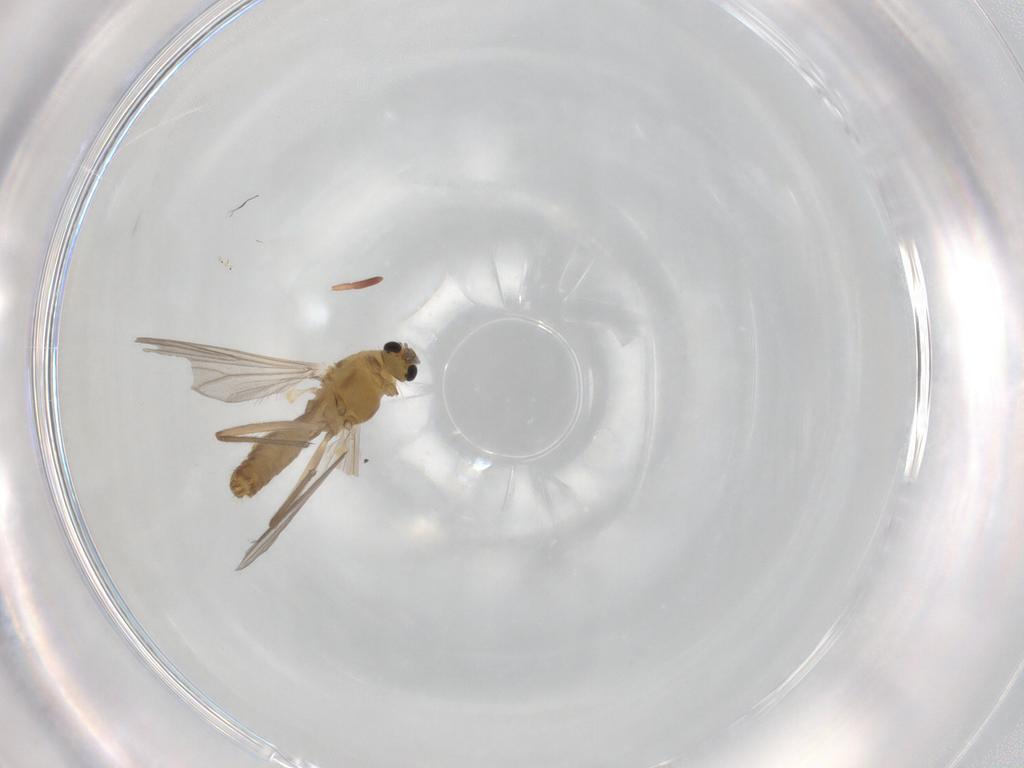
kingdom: Animalia
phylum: Arthropoda
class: Insecta
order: Diptera
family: Chironomidae
